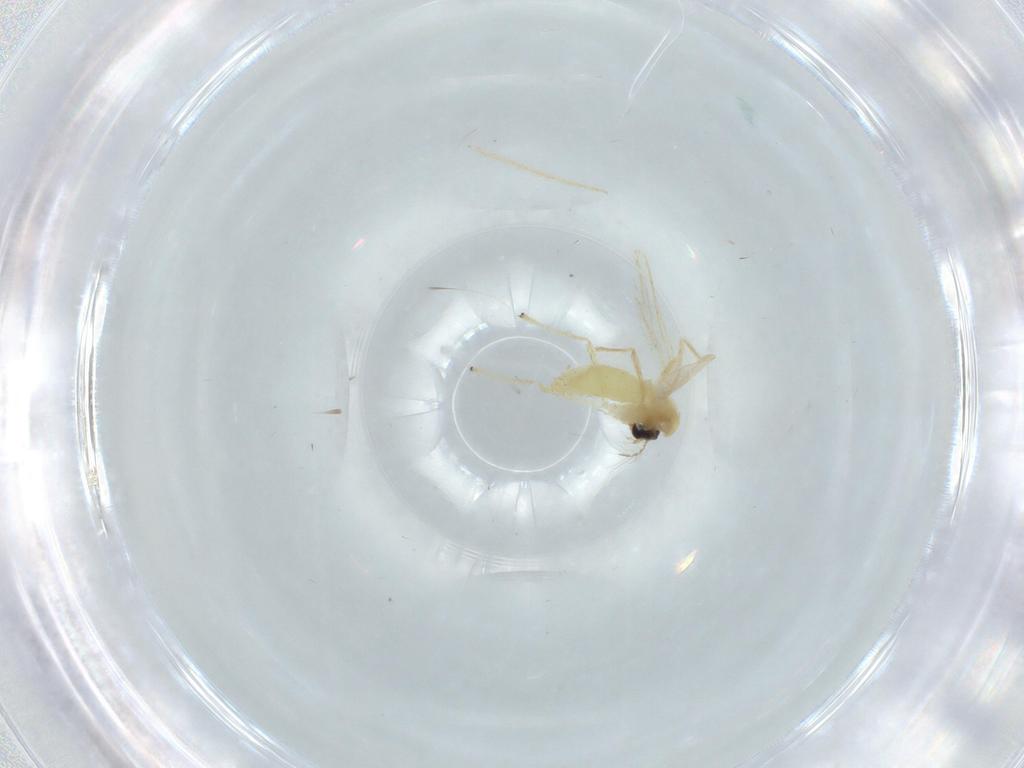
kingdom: Animalia
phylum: Arthropoda
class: Insecta
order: Diptera
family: Chironomidae
